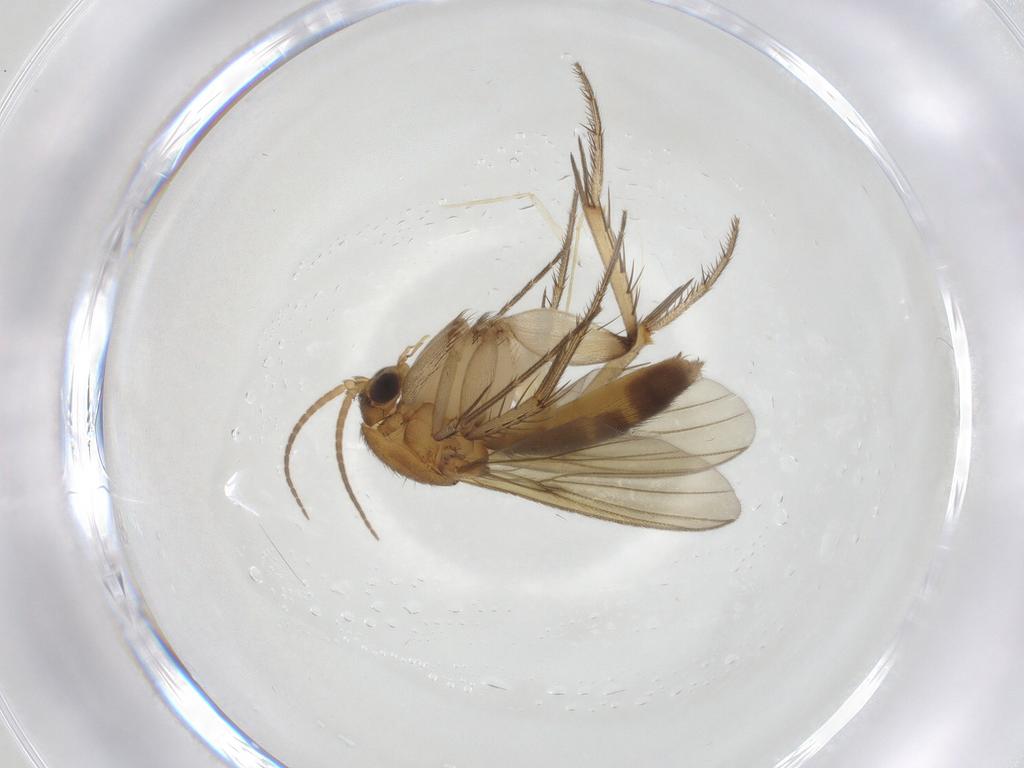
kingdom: Animalia
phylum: Arthropoda
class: Insecta
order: Diptera
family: Mycetophilidae
